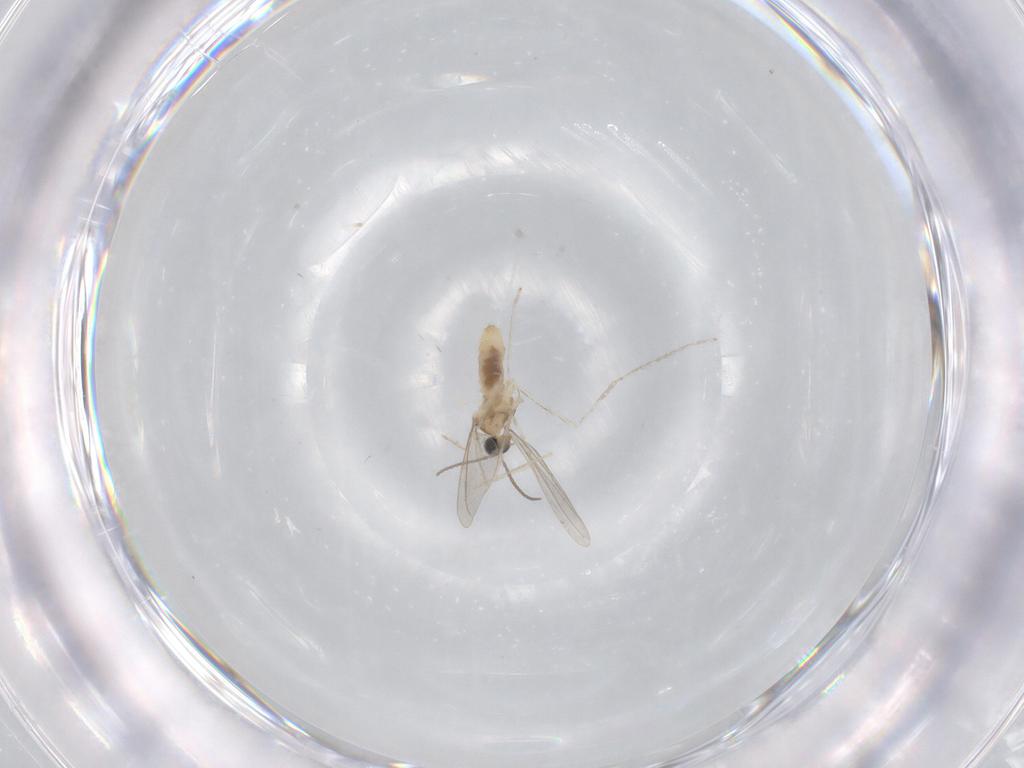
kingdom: Animalia
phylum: Arthropoda
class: Insecta
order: Diptera
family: Cecidomyiidae
